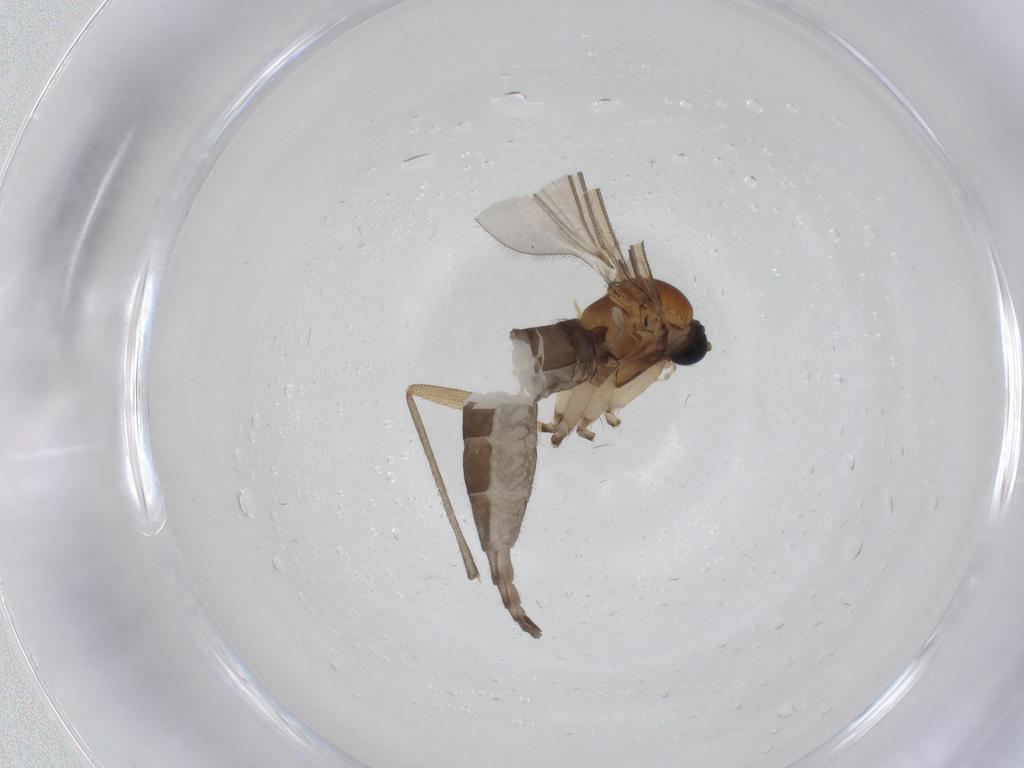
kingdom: Animalia
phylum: Arthropoda
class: Insecta
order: Diptera
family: Sciaridae
